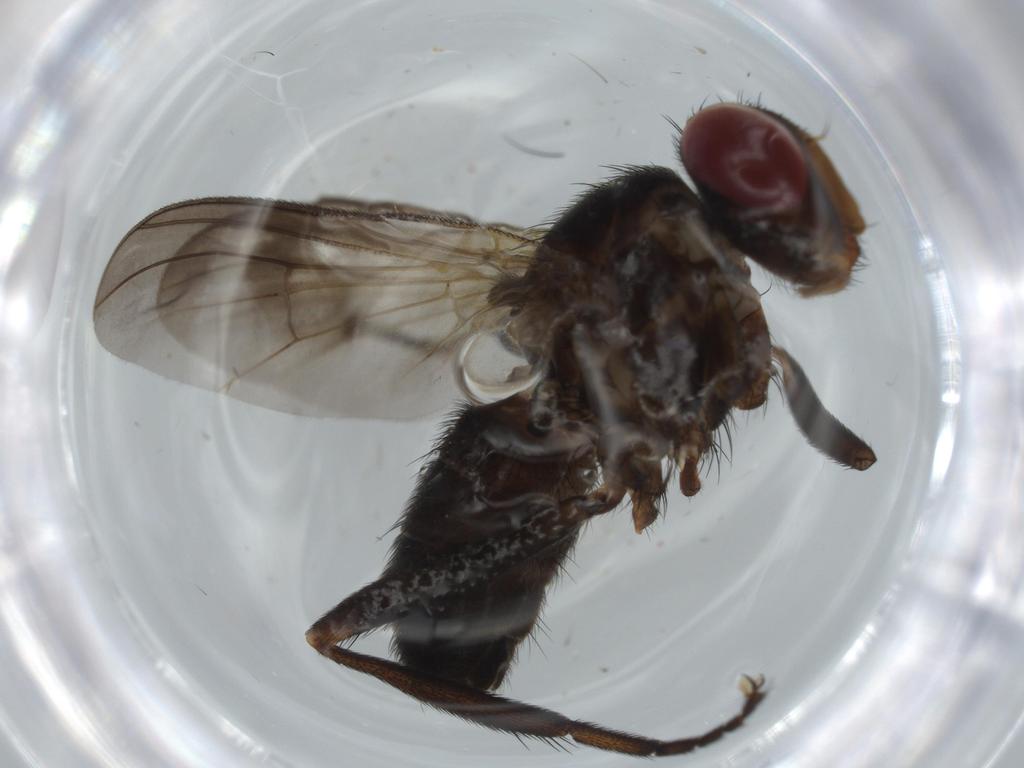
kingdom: Animalia
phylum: Arthropoda
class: Insecta
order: Diptera
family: Calliphoridae
